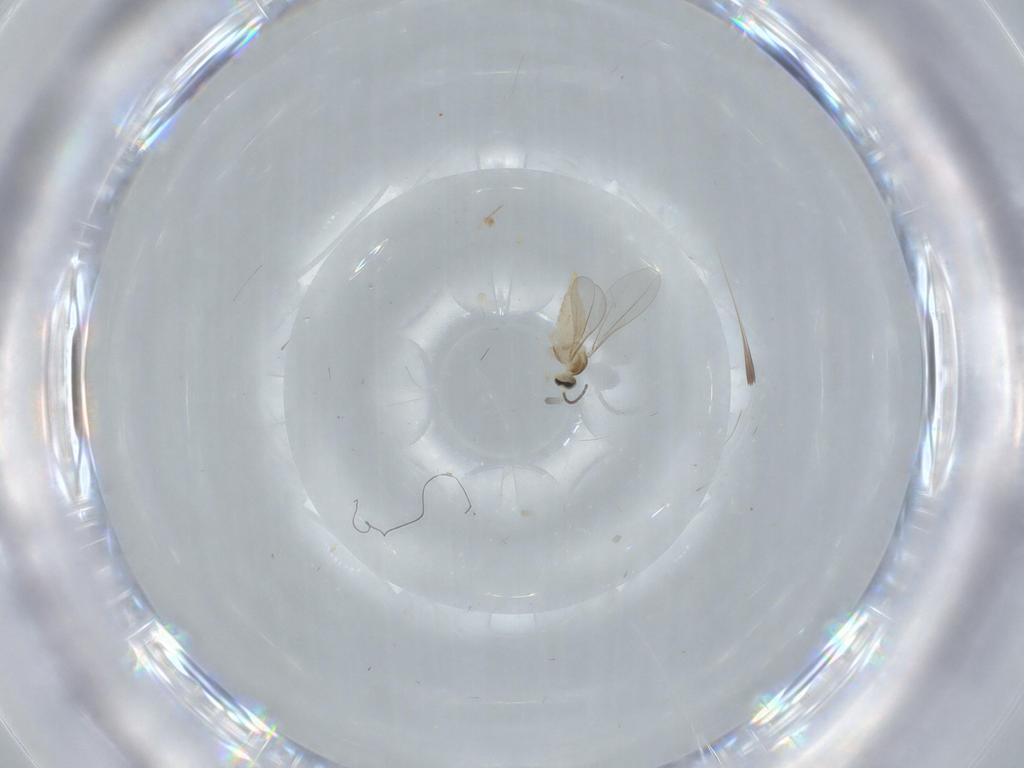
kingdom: Animalia
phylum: Arthropoda
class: Insecta
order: Diptera
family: Cecidomyiidae
